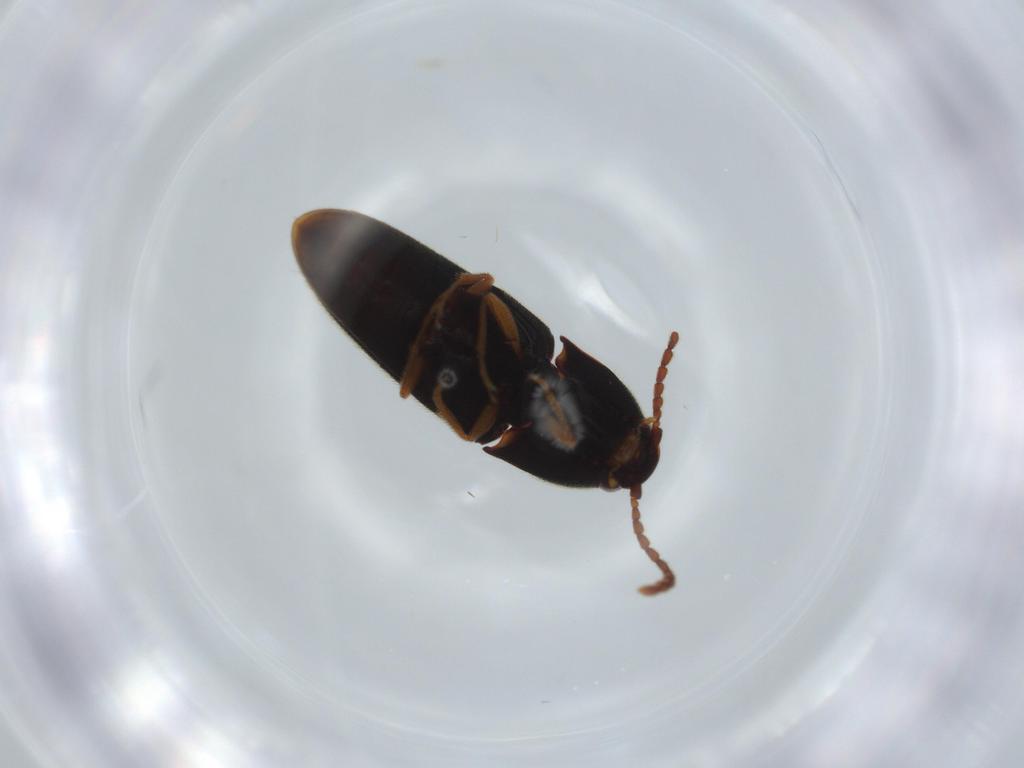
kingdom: Animalia
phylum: Arthropoda
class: Insecta
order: Coleoptera
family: Coccinellidae
